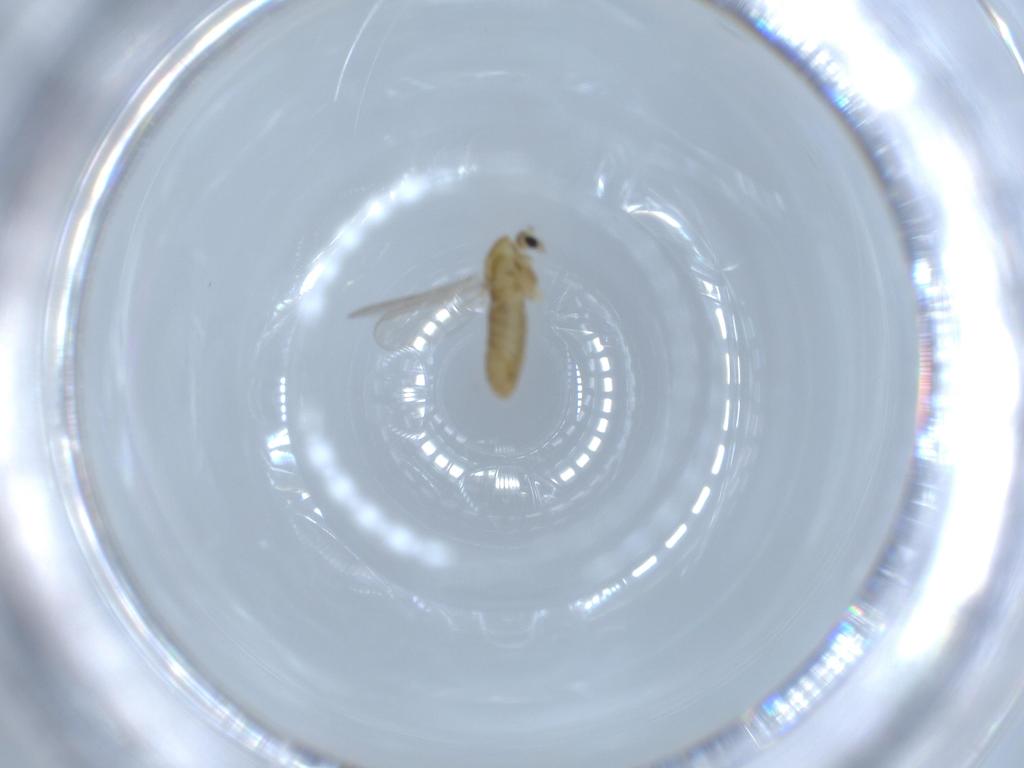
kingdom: Animalia
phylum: Arthropoda
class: Insecta
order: Diptera
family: Chironomidae
